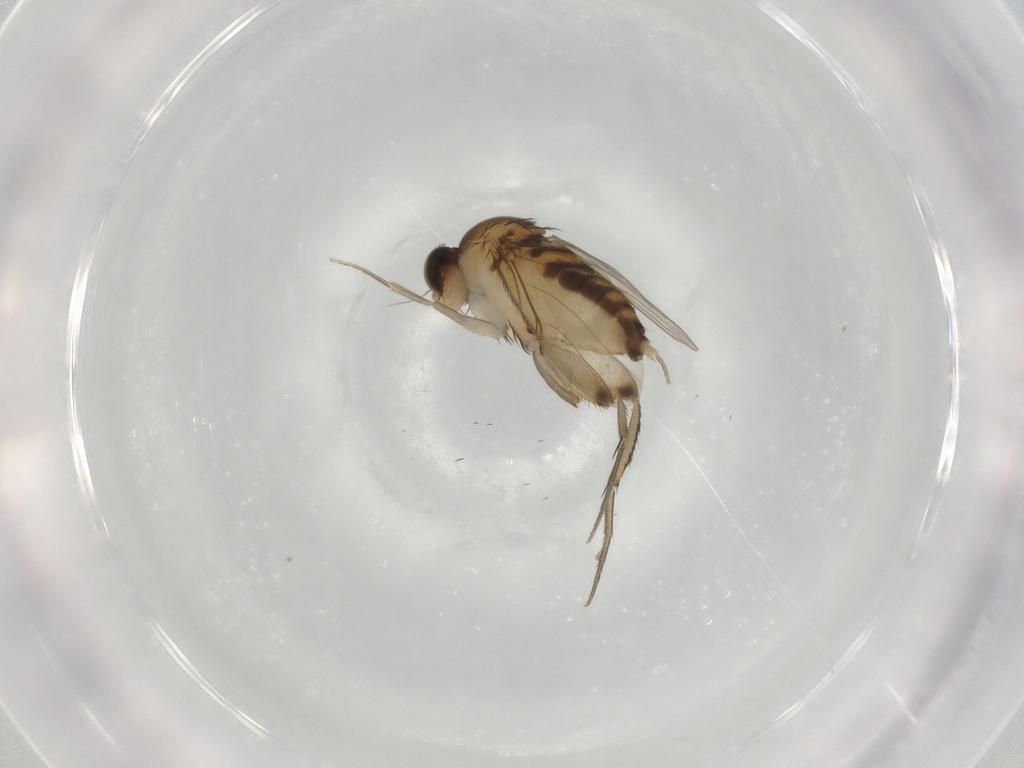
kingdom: Animalia
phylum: Arthropoda
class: Insecta
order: Diptera
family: Phoridae
